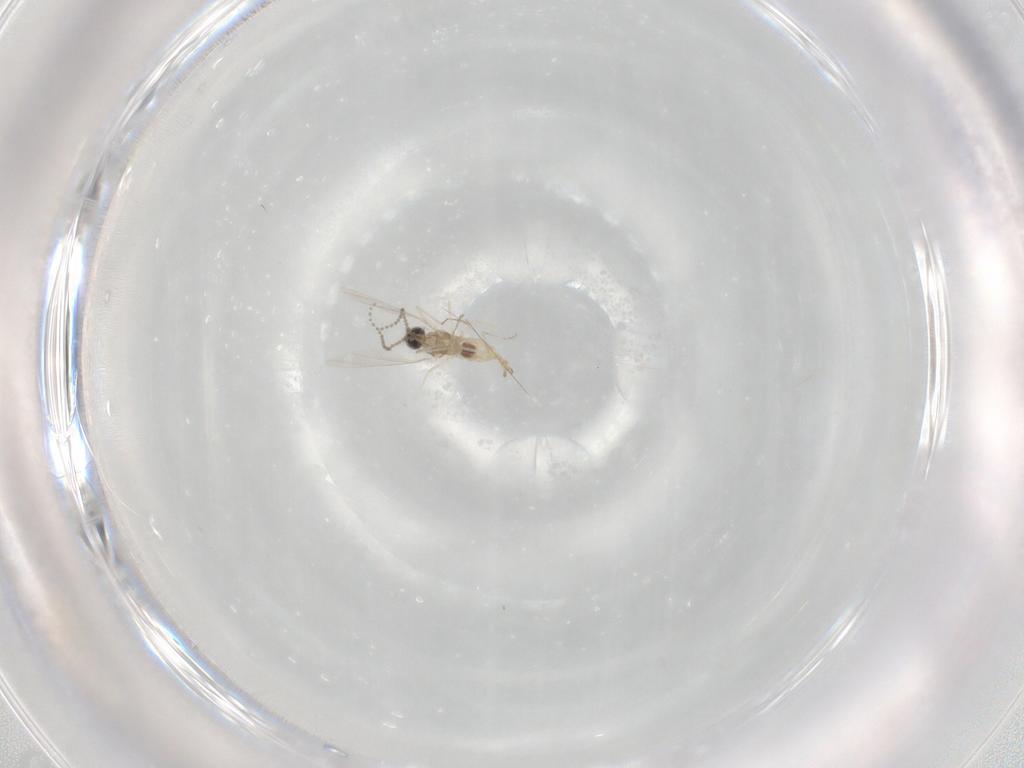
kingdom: Animalia
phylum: Arthropoda
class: Insecta
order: Diptera
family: Cecidomyiidae
